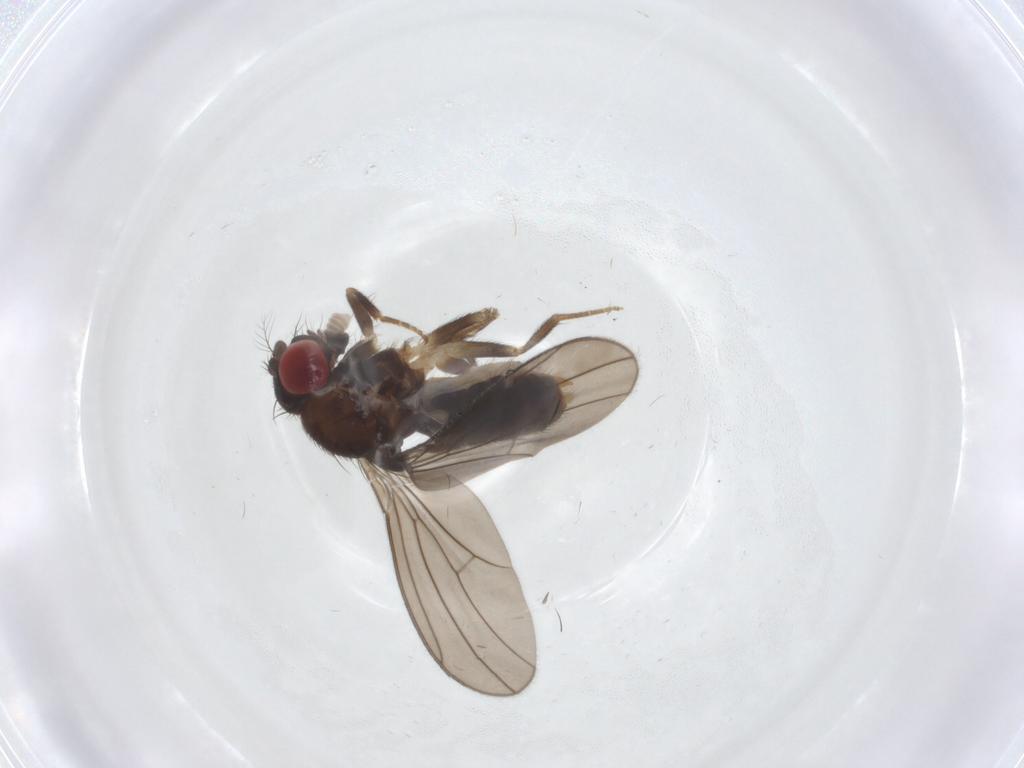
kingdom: Animalia
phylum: Arthropoda
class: Insecta
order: Diptera
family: Drosophilidae
